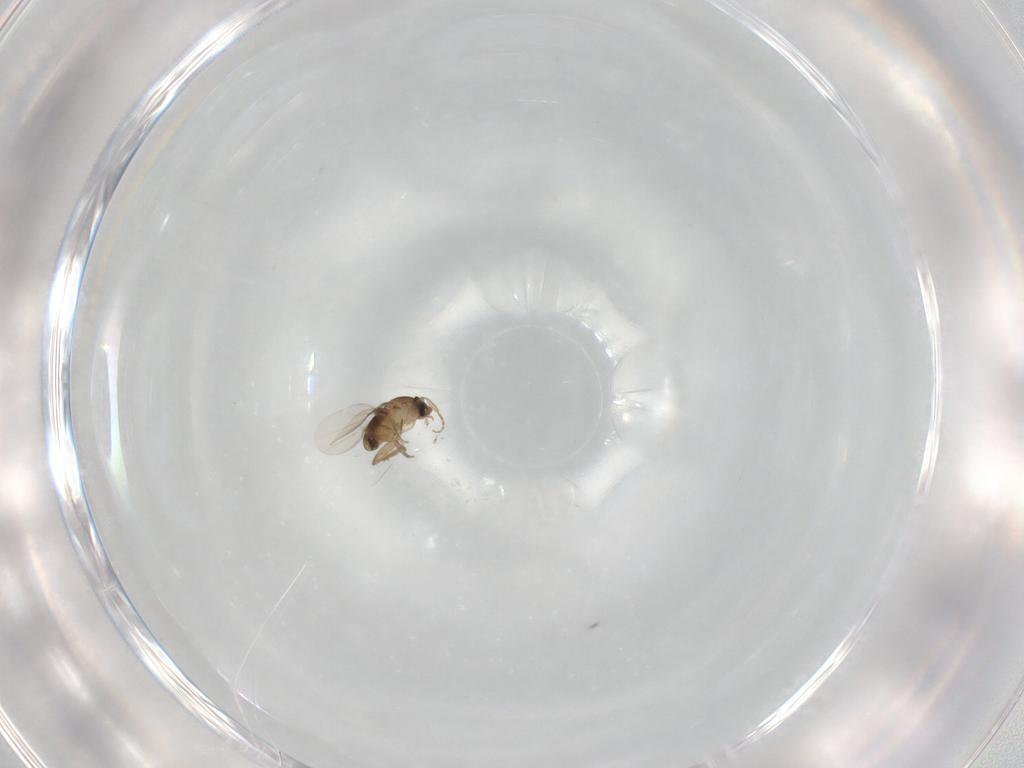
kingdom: Animalia
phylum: Arthropoda
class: Insecta
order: Diptera
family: Phoridae
